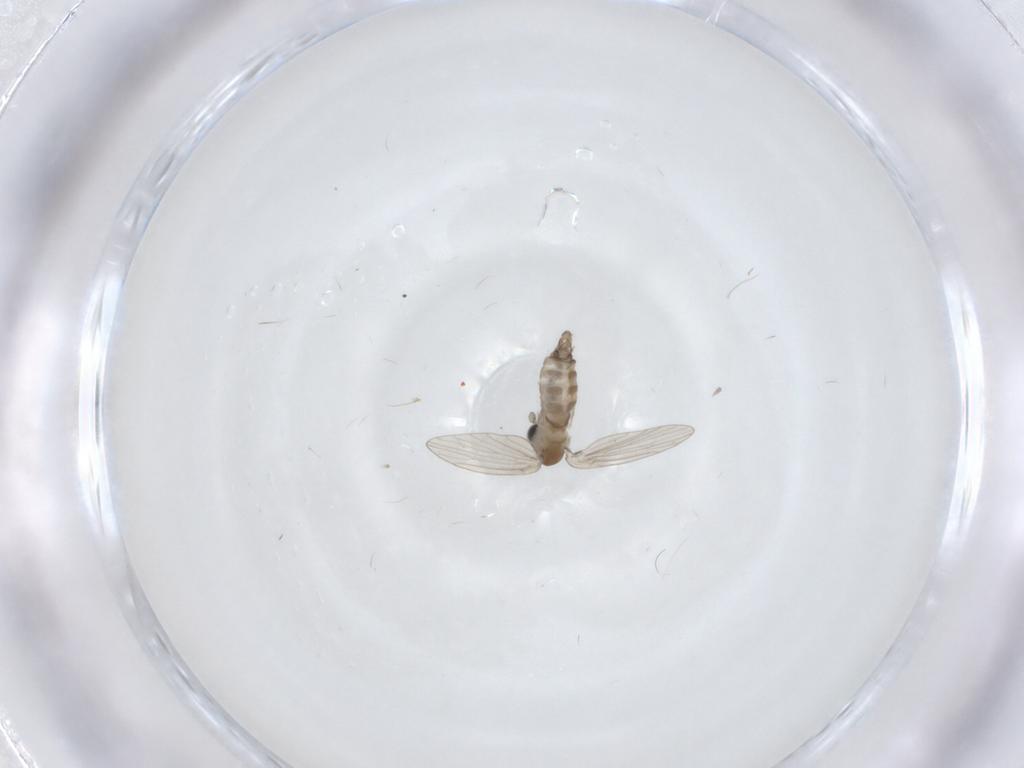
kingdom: Animalia
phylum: Arthropoda
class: Insecta
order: Diptera
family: Psychodidae
